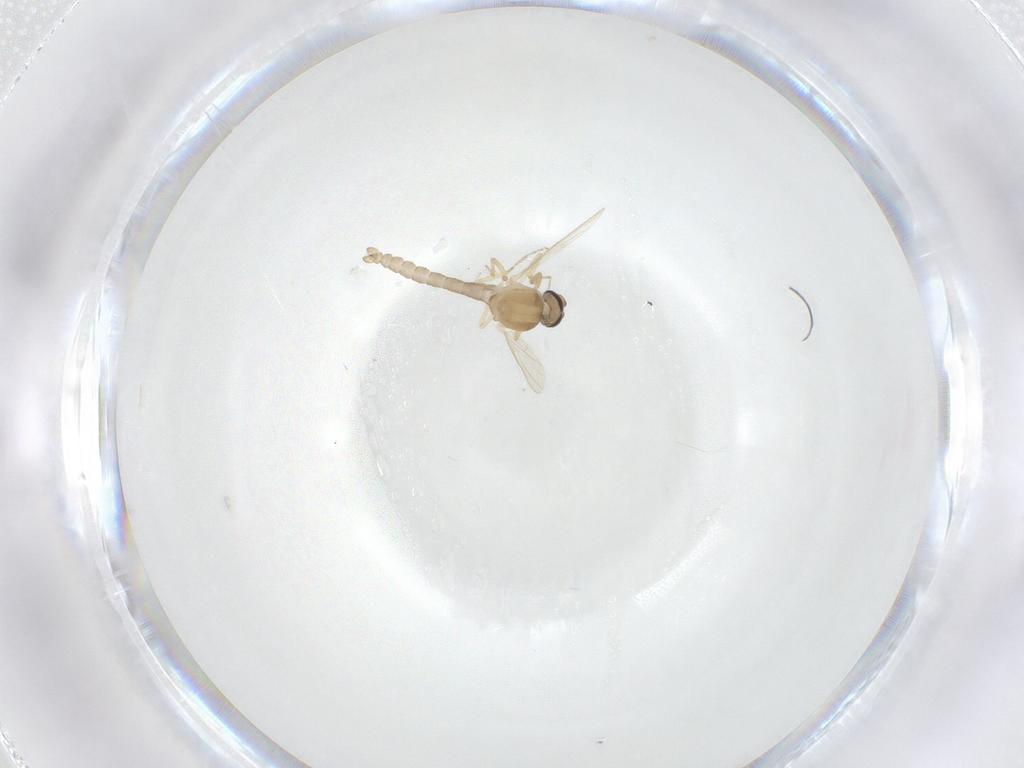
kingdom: Animalia
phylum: Arthropoda
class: Insecta
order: Diptera
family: Ceratopogonidae
